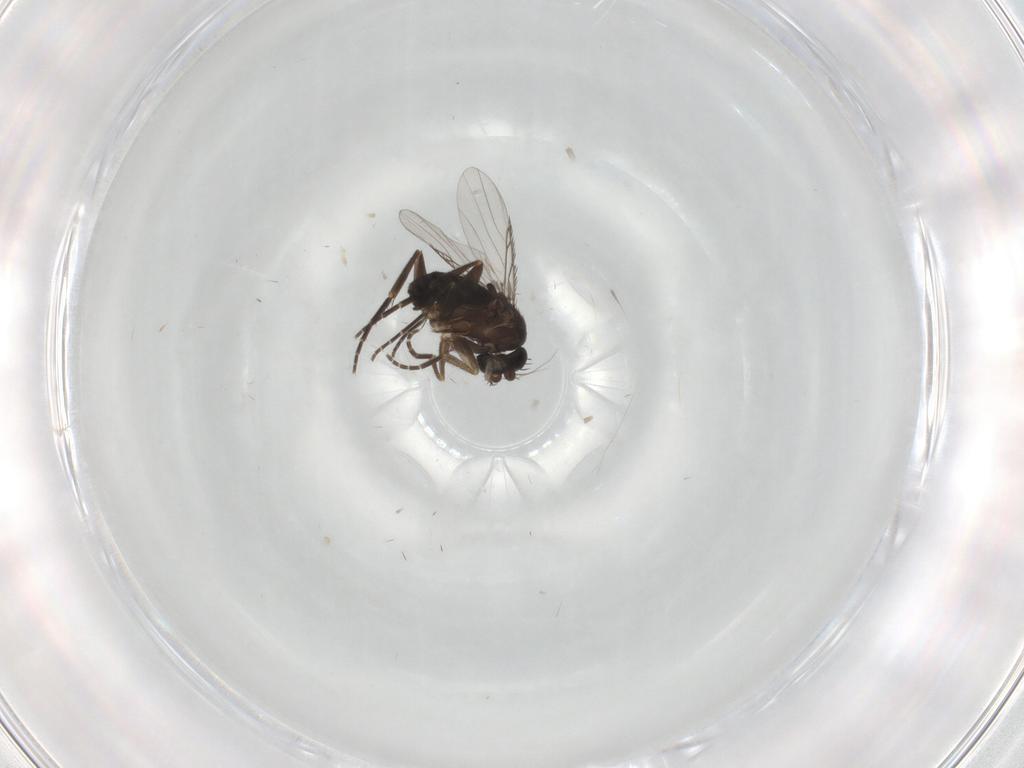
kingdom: Animalia
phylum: Arthropoda
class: Insecta
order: Diptera
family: Phoridae
